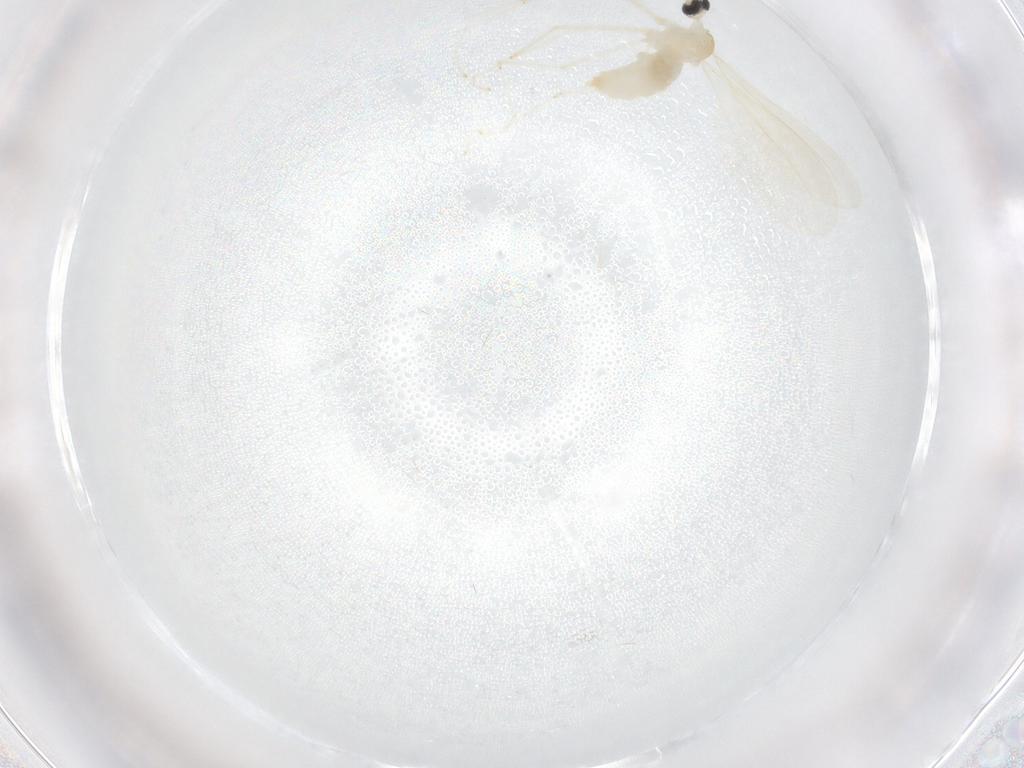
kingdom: Animalia
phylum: Arthropoda
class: Insecta
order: Diptera
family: Cecidomyiidae
